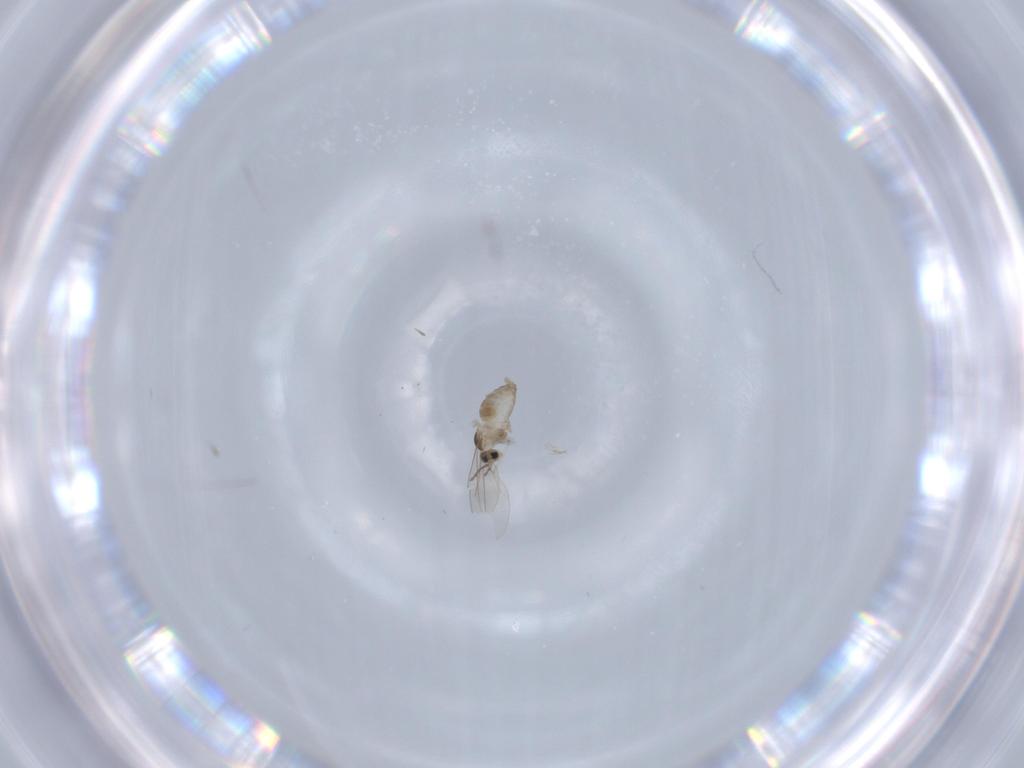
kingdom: Animalia
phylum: Arthropoda
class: Insecta
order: Diptera
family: Cecidomyiidae
